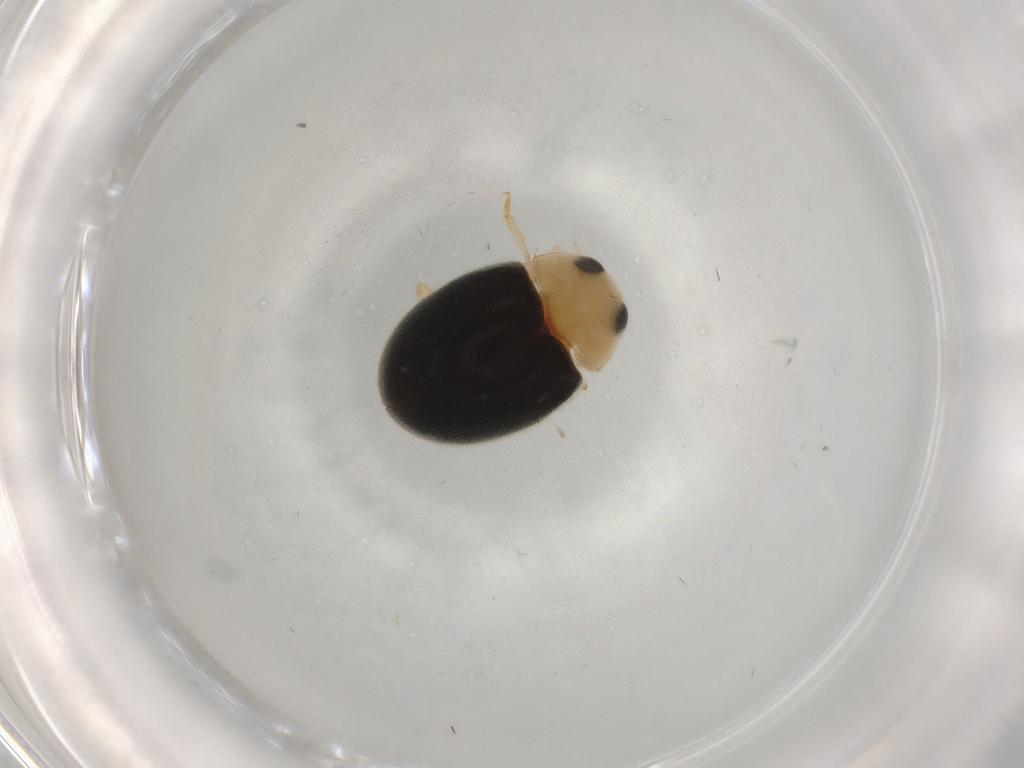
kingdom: Animalia
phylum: Arthropoda
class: Insecta
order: Coleoptera
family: Coccinellidae
